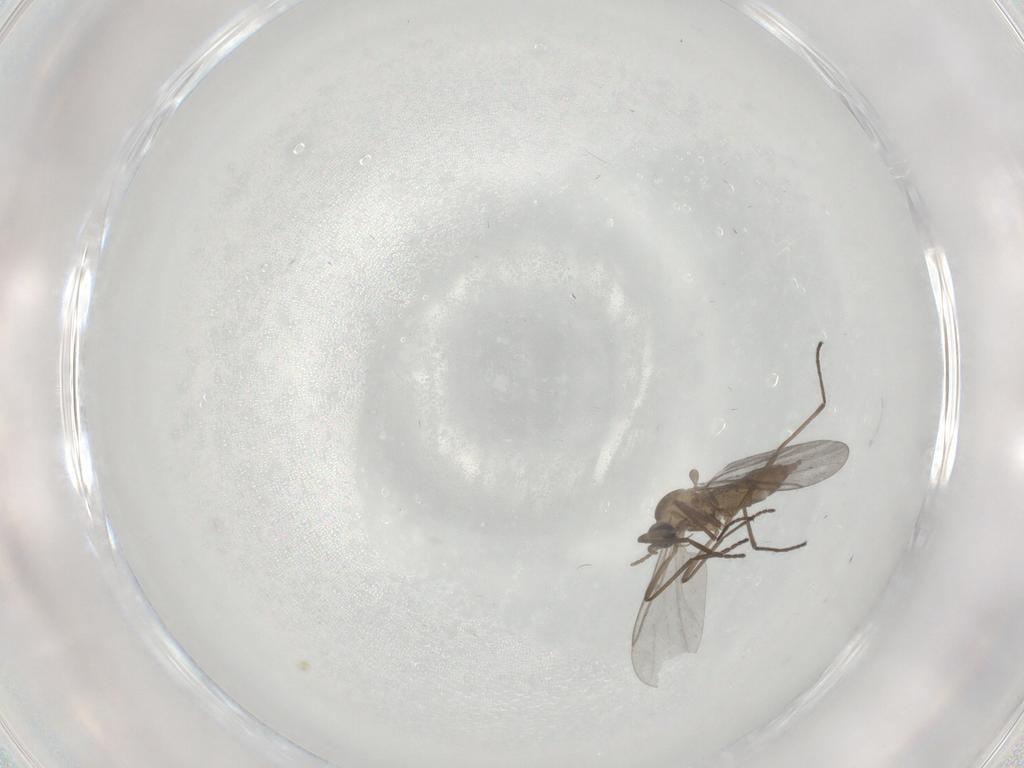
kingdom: Animalia
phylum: Arthropoda
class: Insecta
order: Diptera
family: Cecidomyiidae
